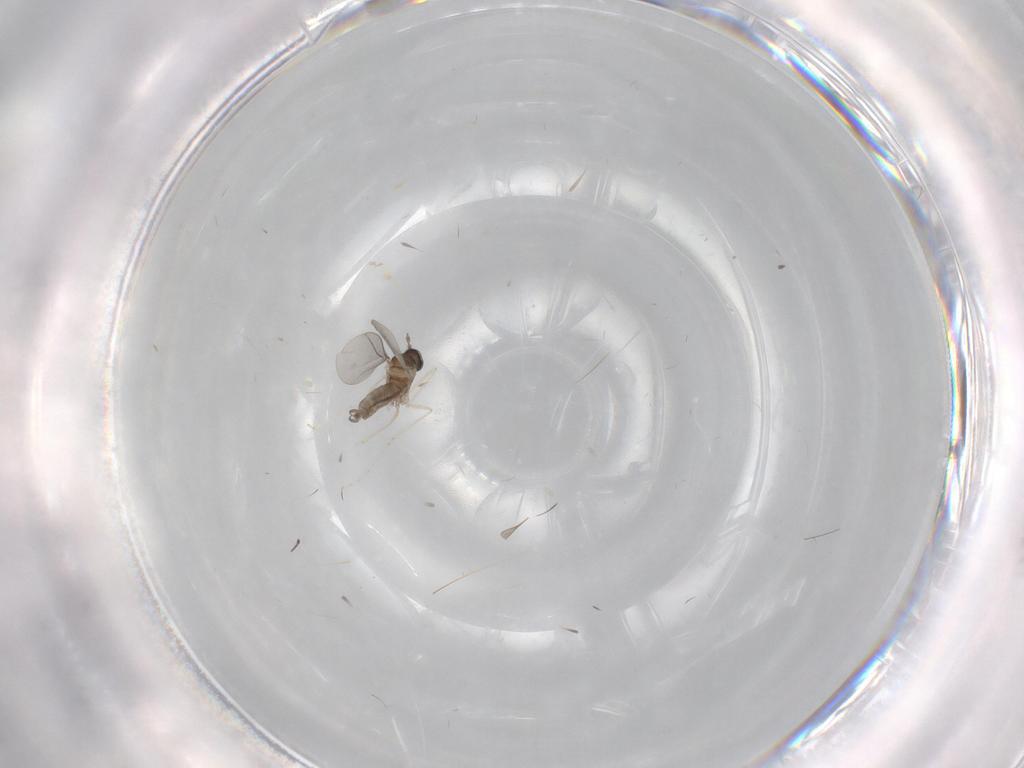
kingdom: Animalia
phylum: Arthropoda
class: Insecta
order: Diptera
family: Cecidomyiidae
